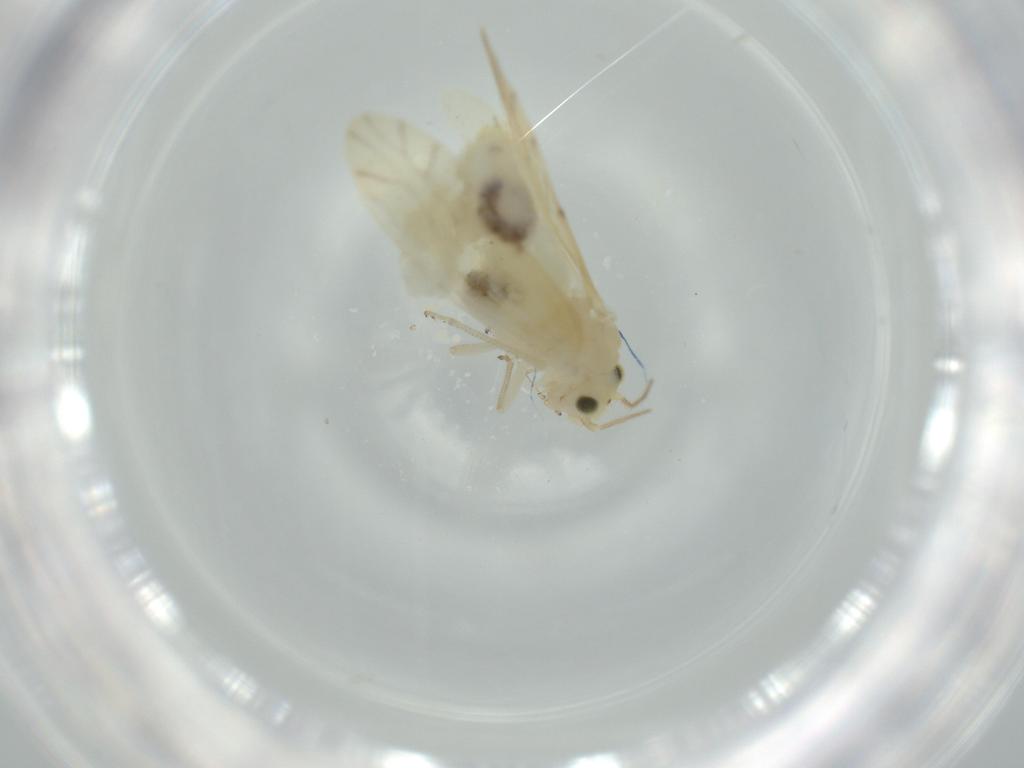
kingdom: Animalia
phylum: Arthropoda
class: Insecta
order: Psocodea
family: Caeciliusidae
